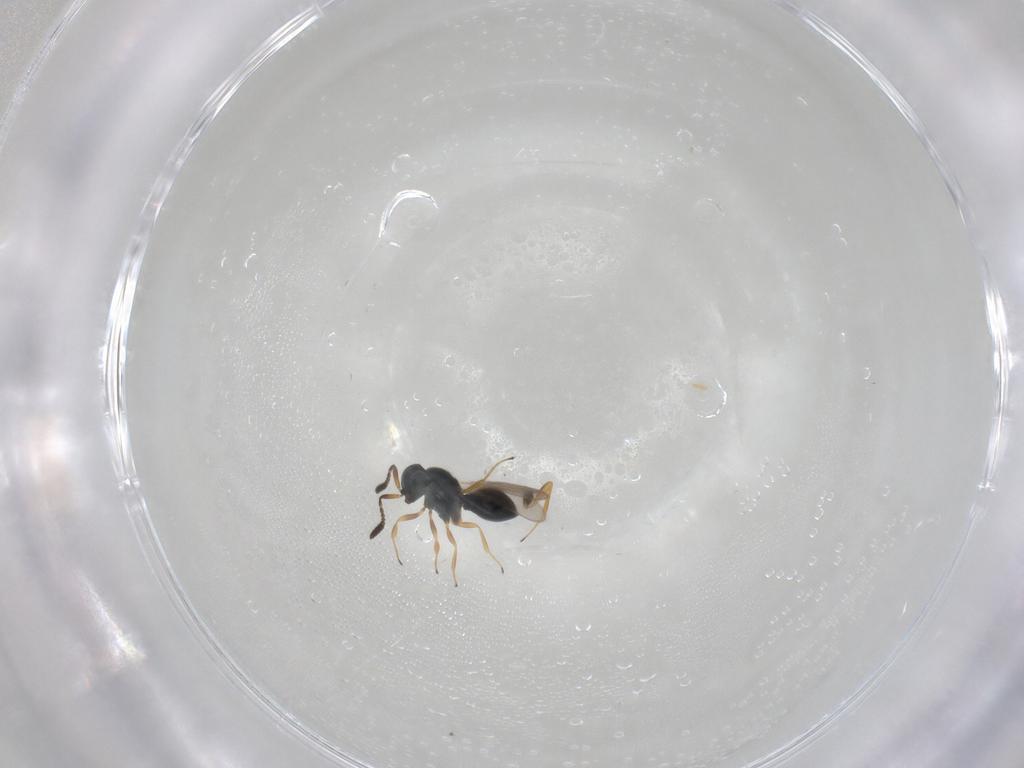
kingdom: Animalia
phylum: Arthropoda
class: Insecta
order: Hymenoptera
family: Scelionidae
